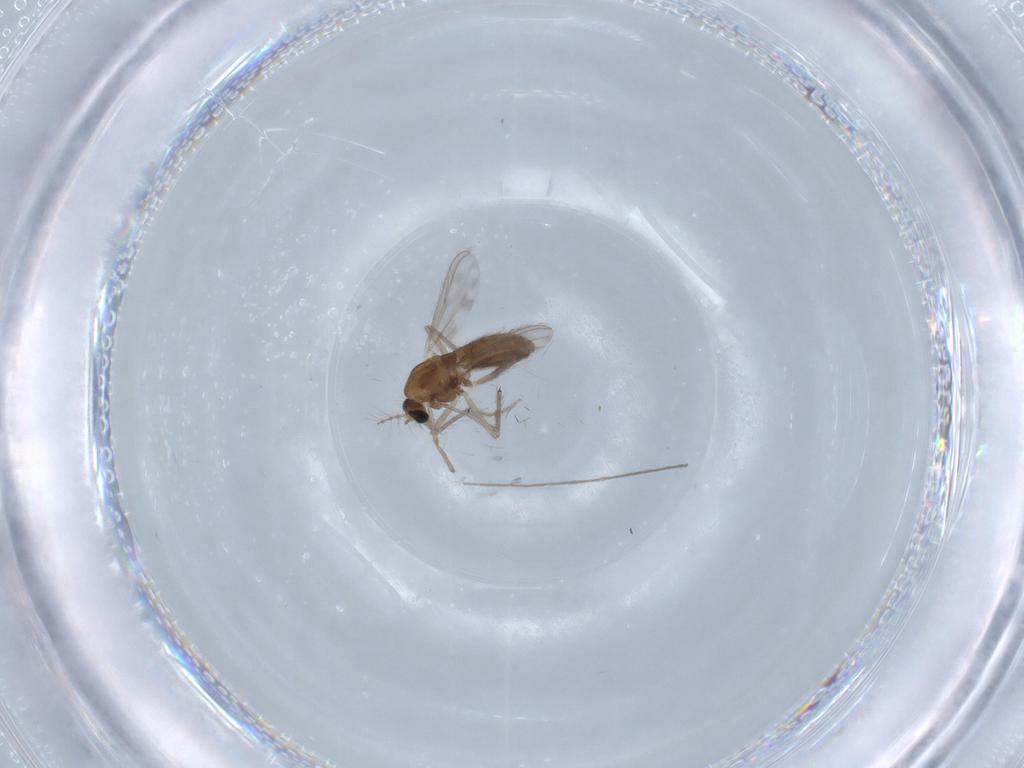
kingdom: Animalia
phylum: Arthropoda
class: Insecta
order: Diptera
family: Chironomidae
